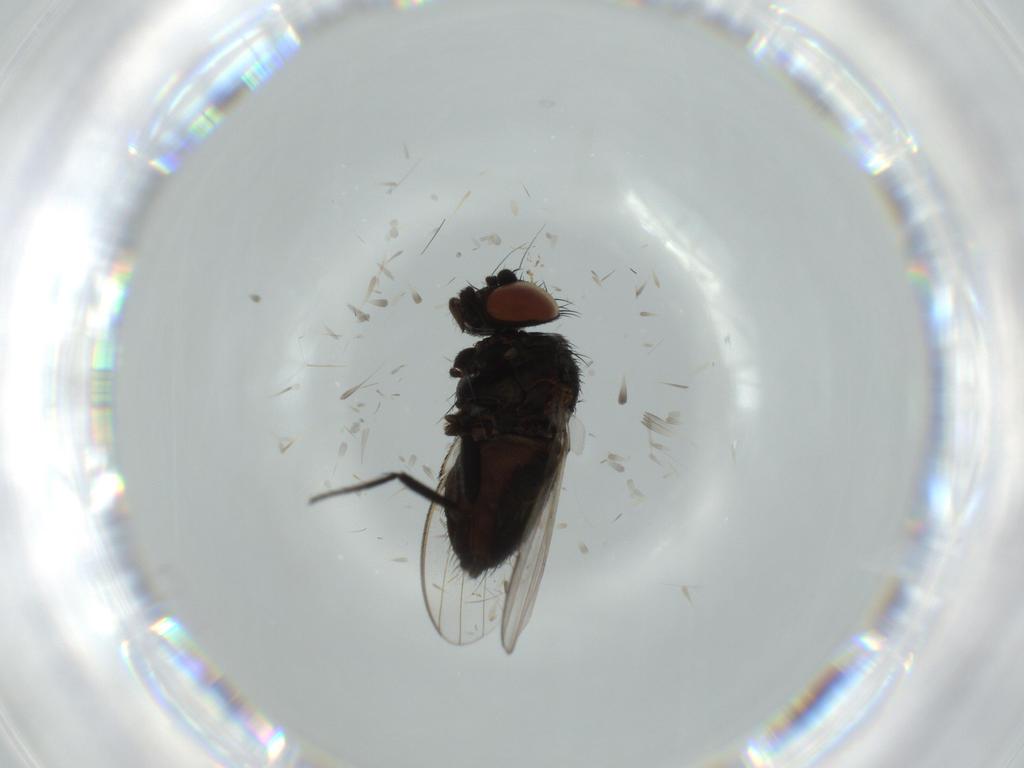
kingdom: Animalia
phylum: Arthropoda
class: Insecta
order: Diptera
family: Milichiidae
